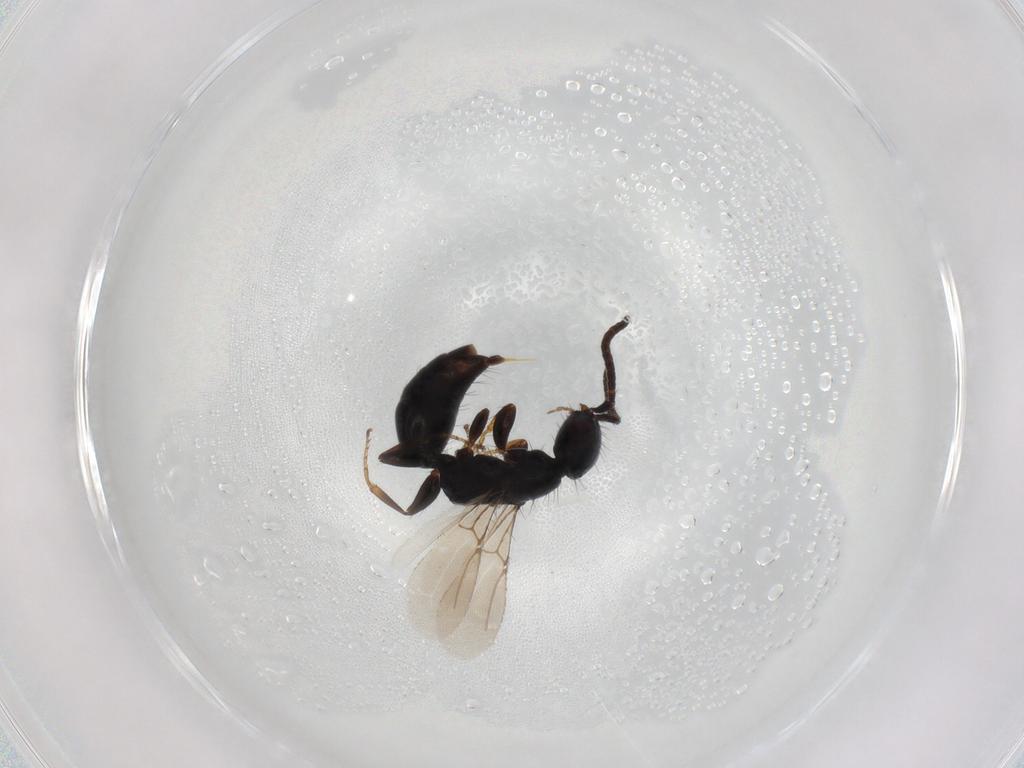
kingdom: Animalia
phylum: Arthropoda
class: Insecta
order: Hymenoptera
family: Bethylidae
